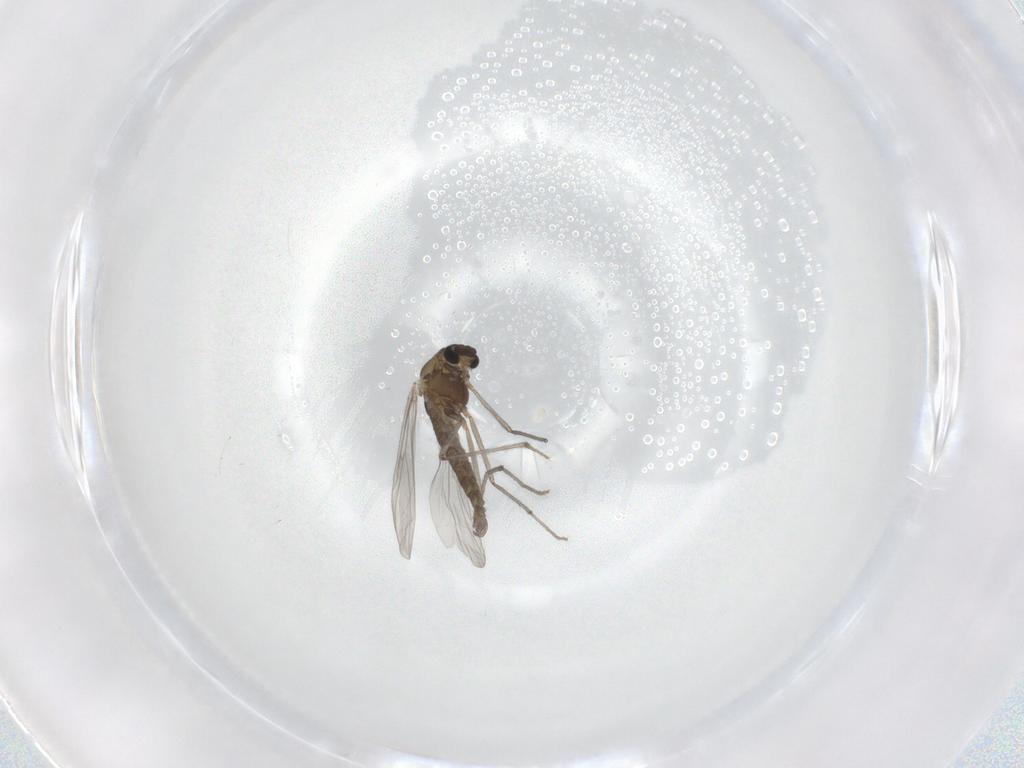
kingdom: Animalia
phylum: Arthropoda
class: Insecta
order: Diptera
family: Chironomidae
